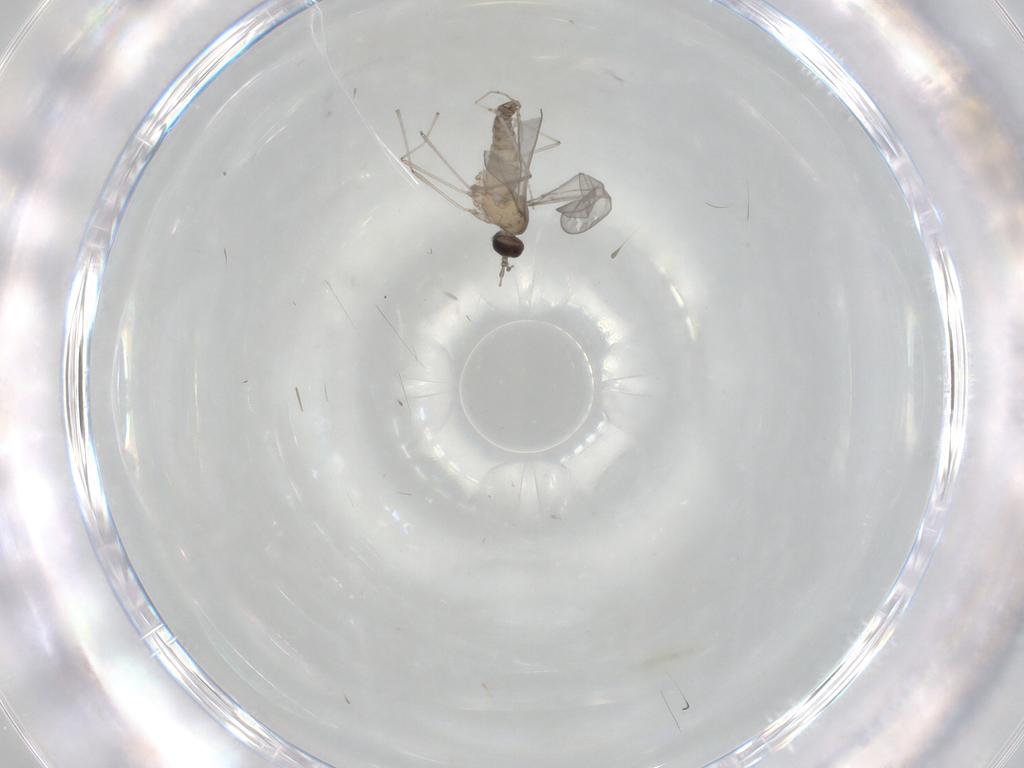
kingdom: Animalia
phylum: Arthropoda
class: Insecta
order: Diptera
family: Cecidomyiidae
